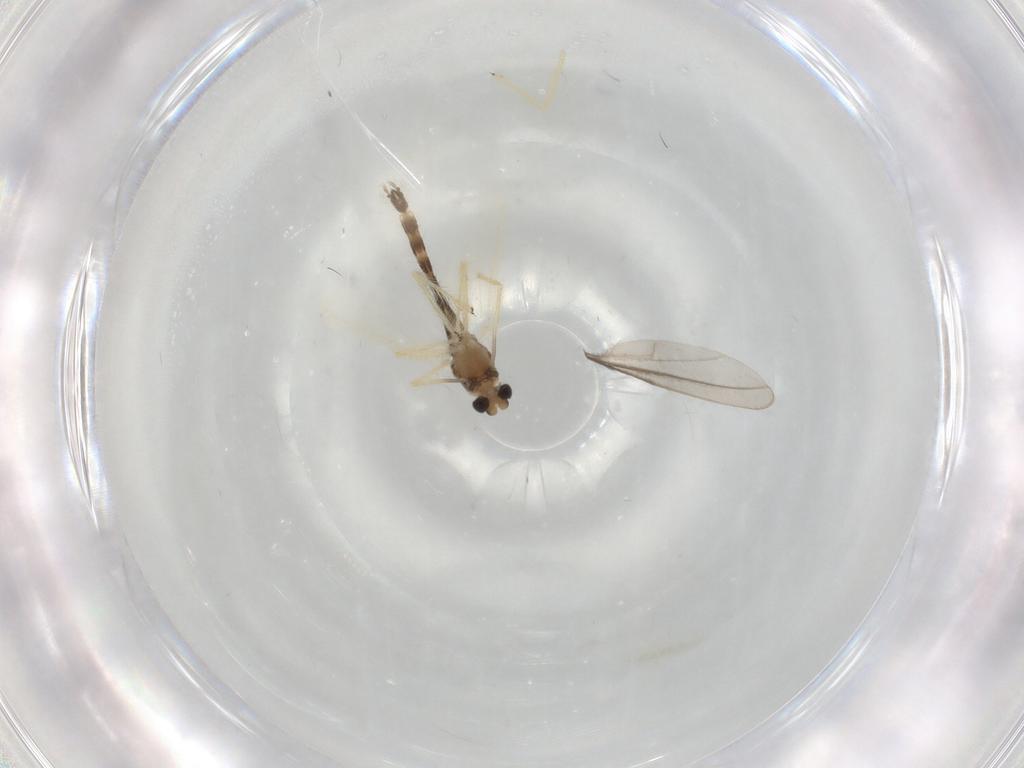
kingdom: Animalia
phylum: Arthropoda
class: Insecta
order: Diptera
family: Chironomidae
